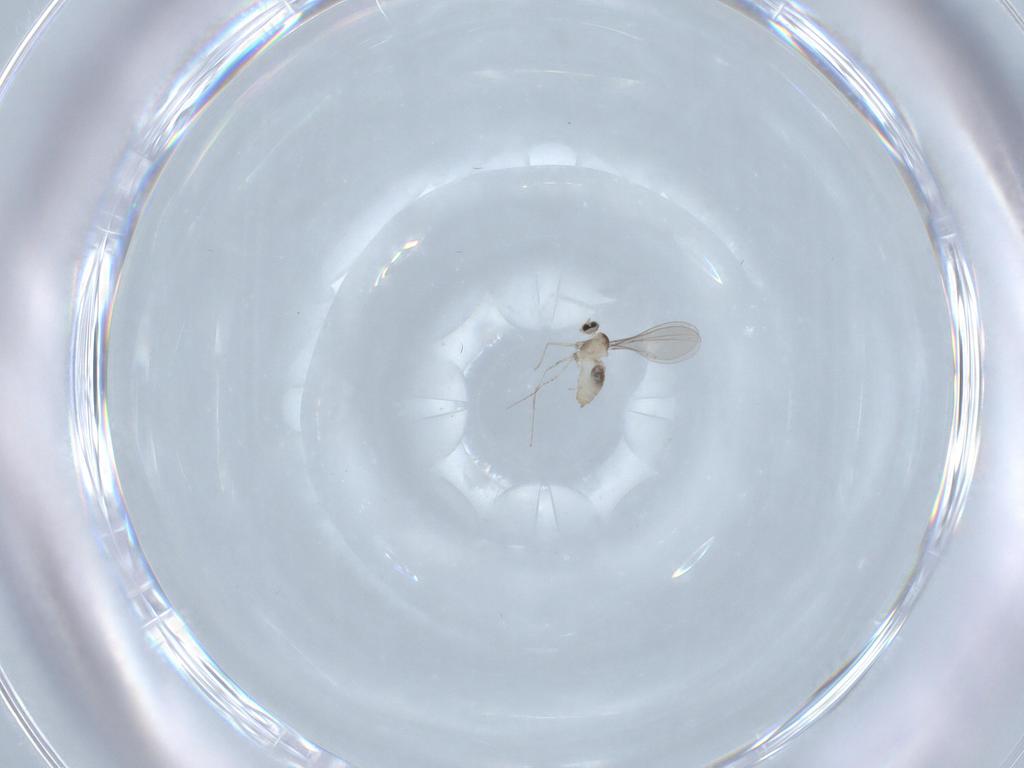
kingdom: Animalia
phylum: Arthropoda
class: Insecta
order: Diptera
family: Cecidomyiidae
